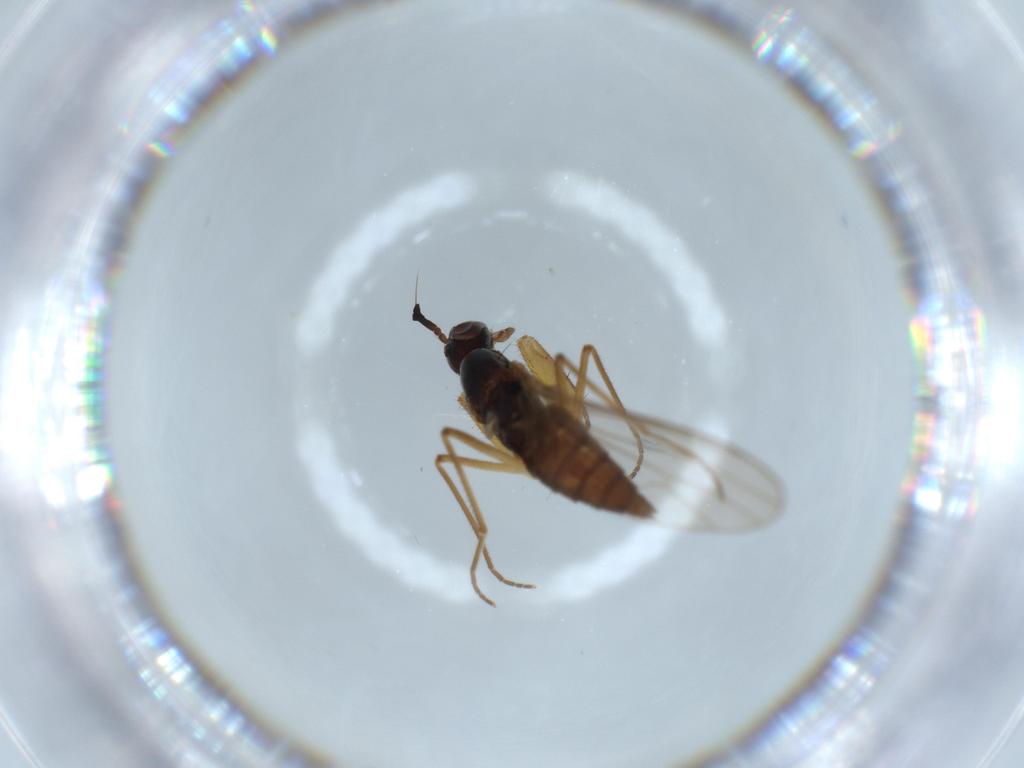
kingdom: Animalia
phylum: Arthropoda
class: Insecta
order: Diptera
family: Empididae
